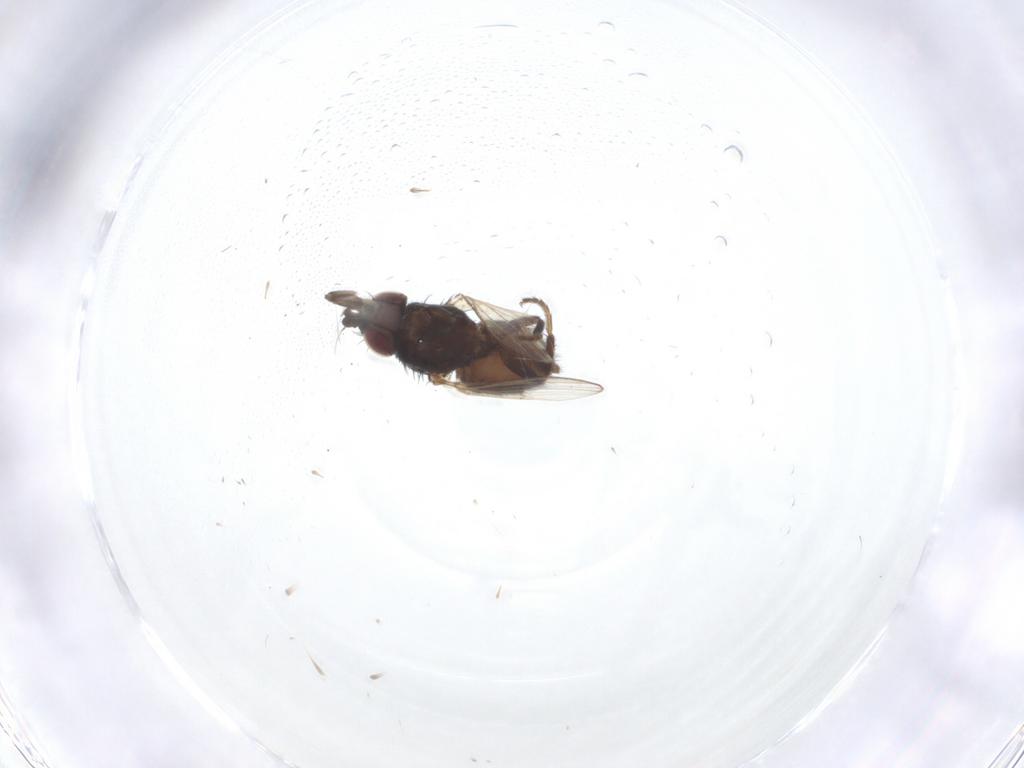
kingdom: Animalia
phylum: Arthropoda
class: Insecta
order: Diptera
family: Milichiidae
